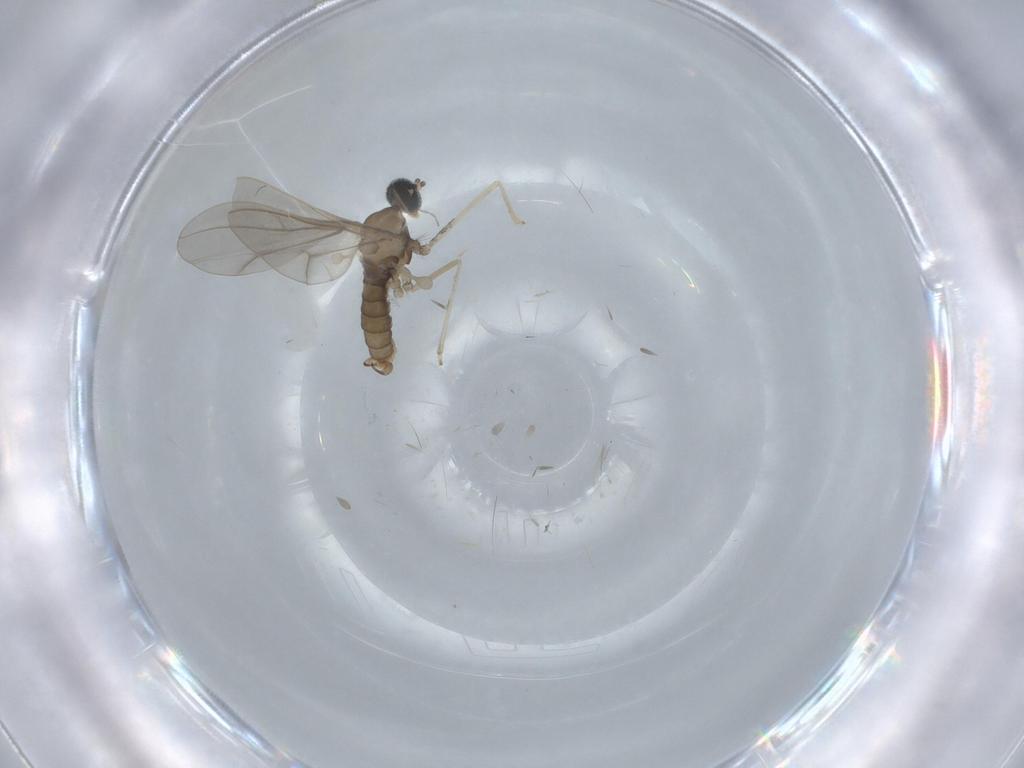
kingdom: Animalia
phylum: Arthropoda
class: Insecta
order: Diptera
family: Cecidomyiidae
